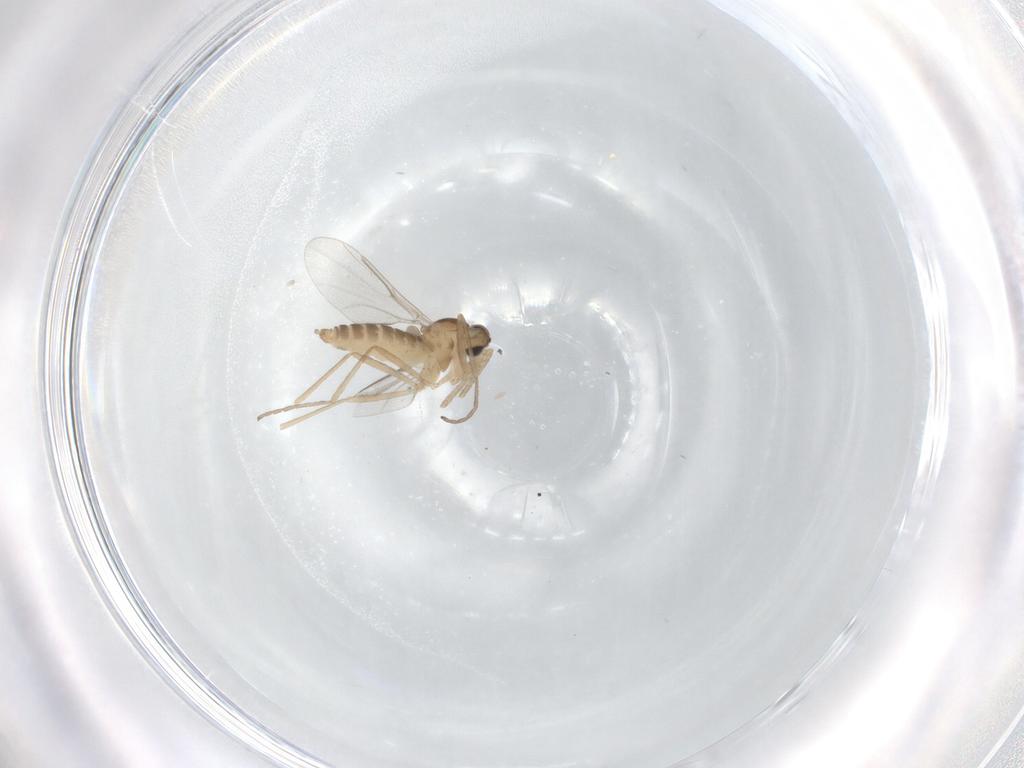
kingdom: Animalia
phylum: Arthropoda
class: Insecta
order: Diptera
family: Cecidomyiidae
